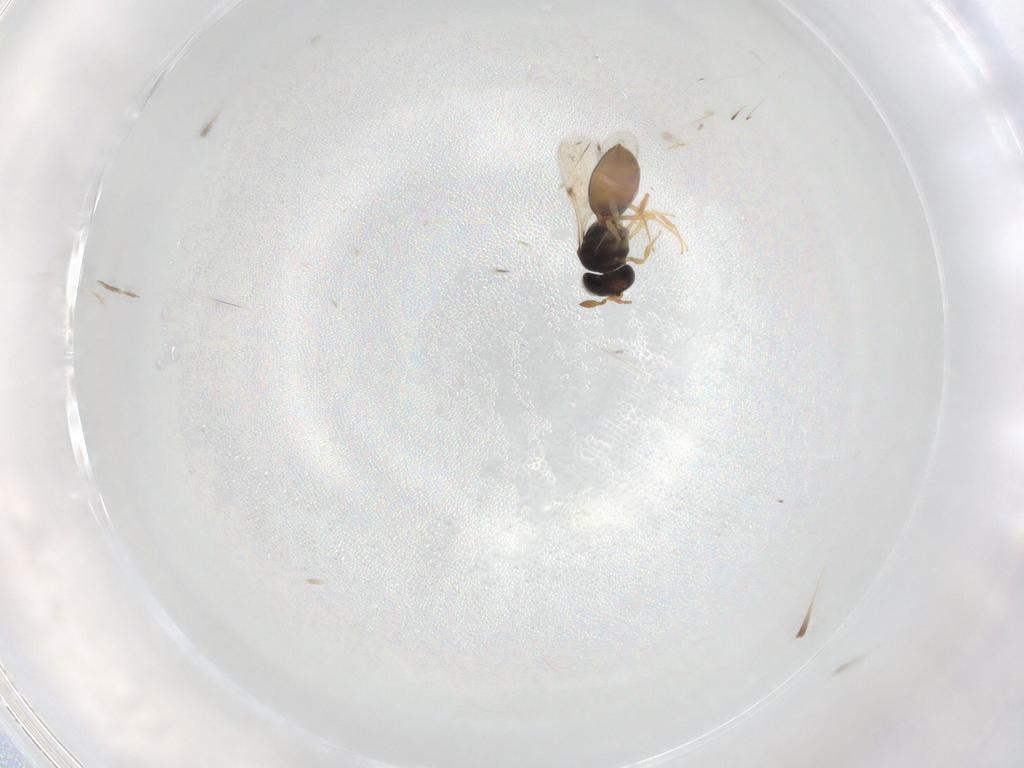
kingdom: Animalia
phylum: Arthropoda
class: Insecta
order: Hymenoptera
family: Scelionidae
